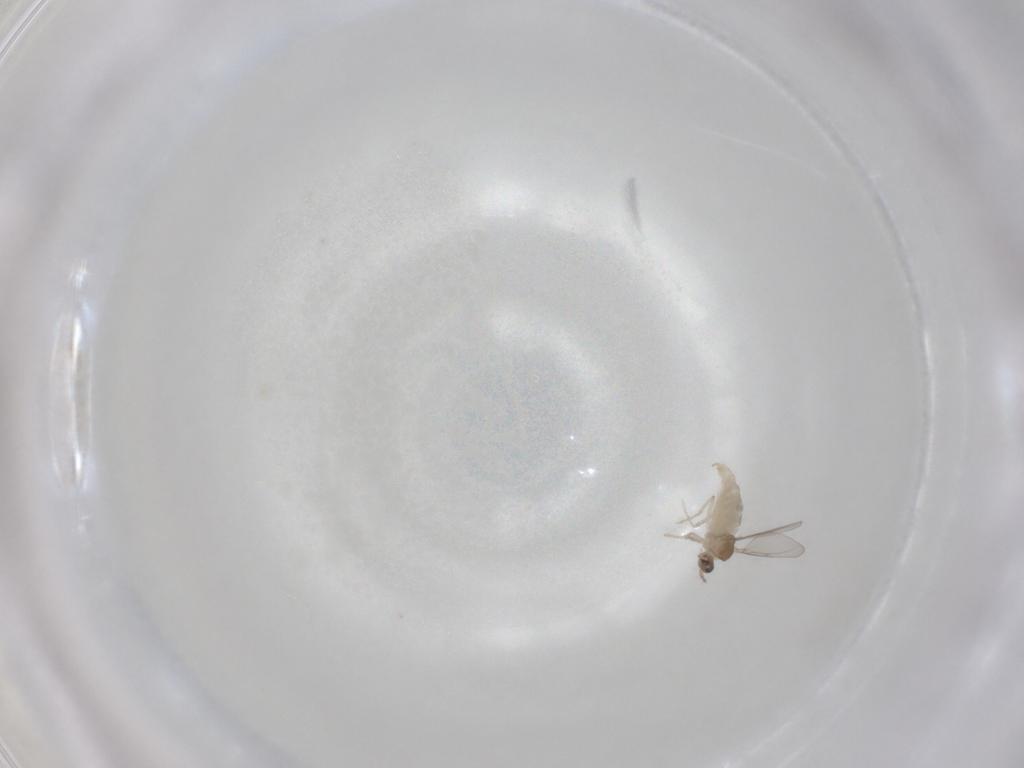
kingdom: Animalia
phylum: Arthropoda
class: Insecta
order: Diptera
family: Cecidomyiidae
